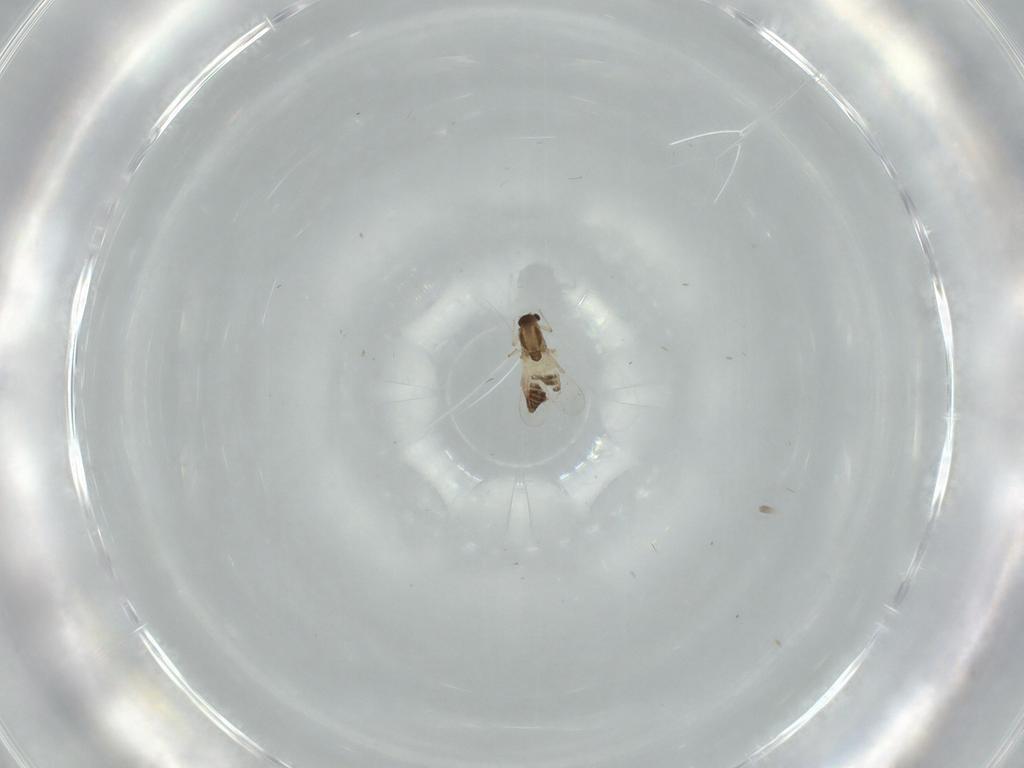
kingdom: Animalia
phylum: Arthropoda
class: Insecta
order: Diptera
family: Chironomidae
